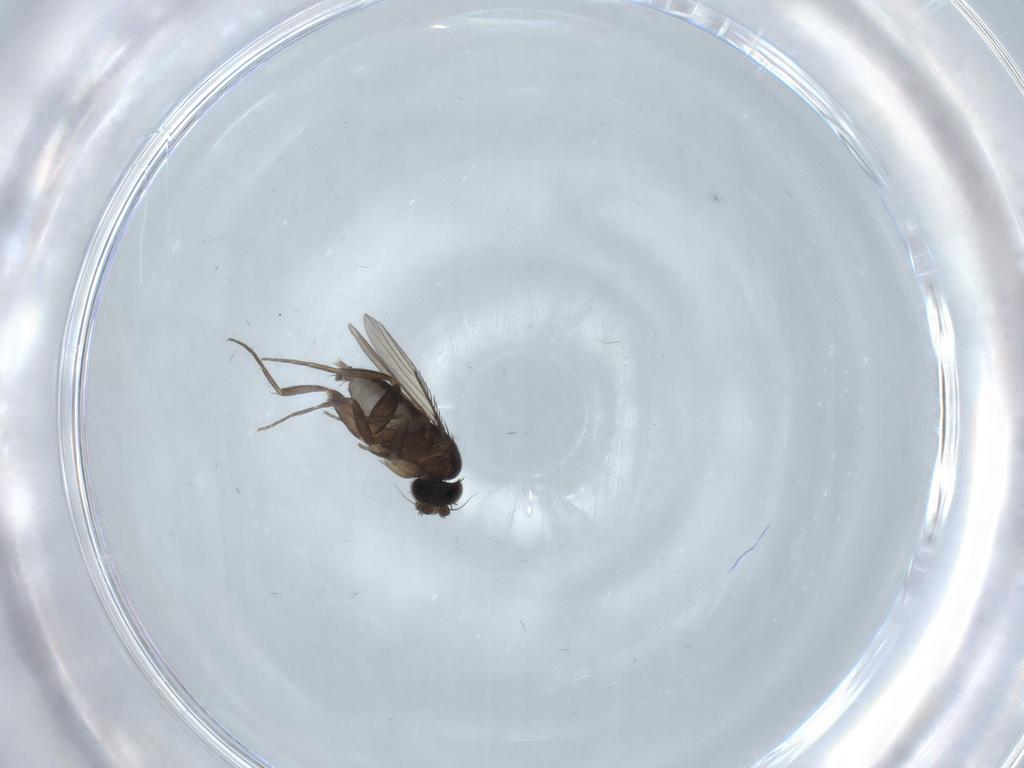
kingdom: Animalia
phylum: Arthropoda
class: Insecta
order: Diptera
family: Phoridae
